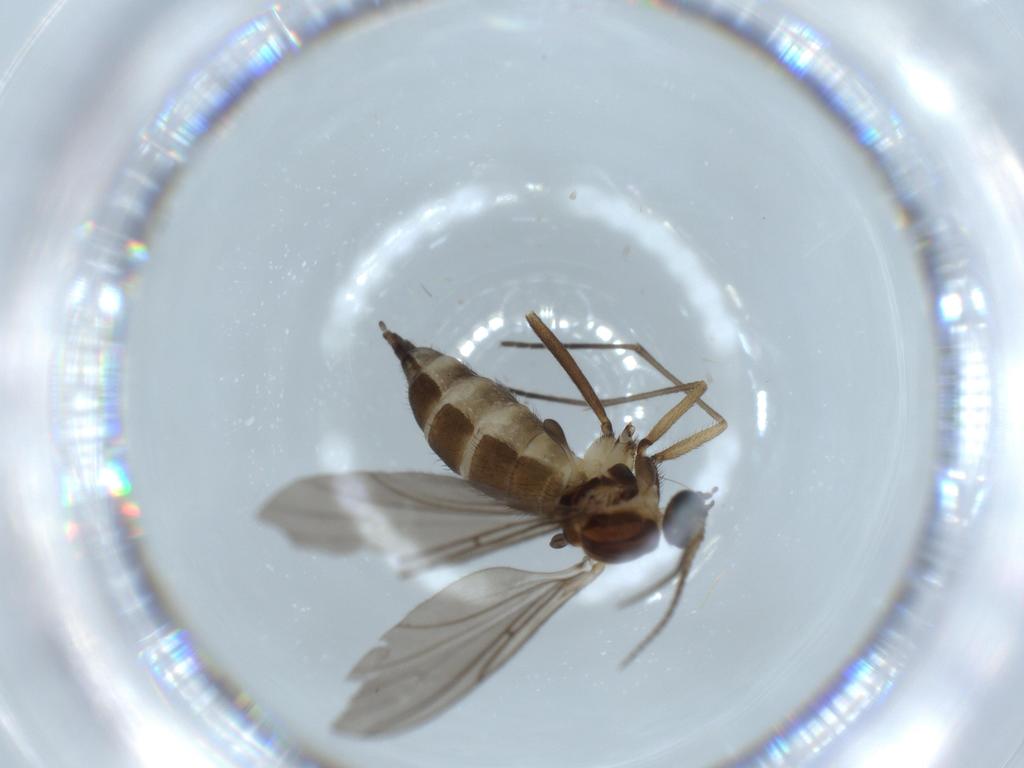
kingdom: Animalia
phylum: Arthropoda
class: Insecta
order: Diptera
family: Sciaridae
